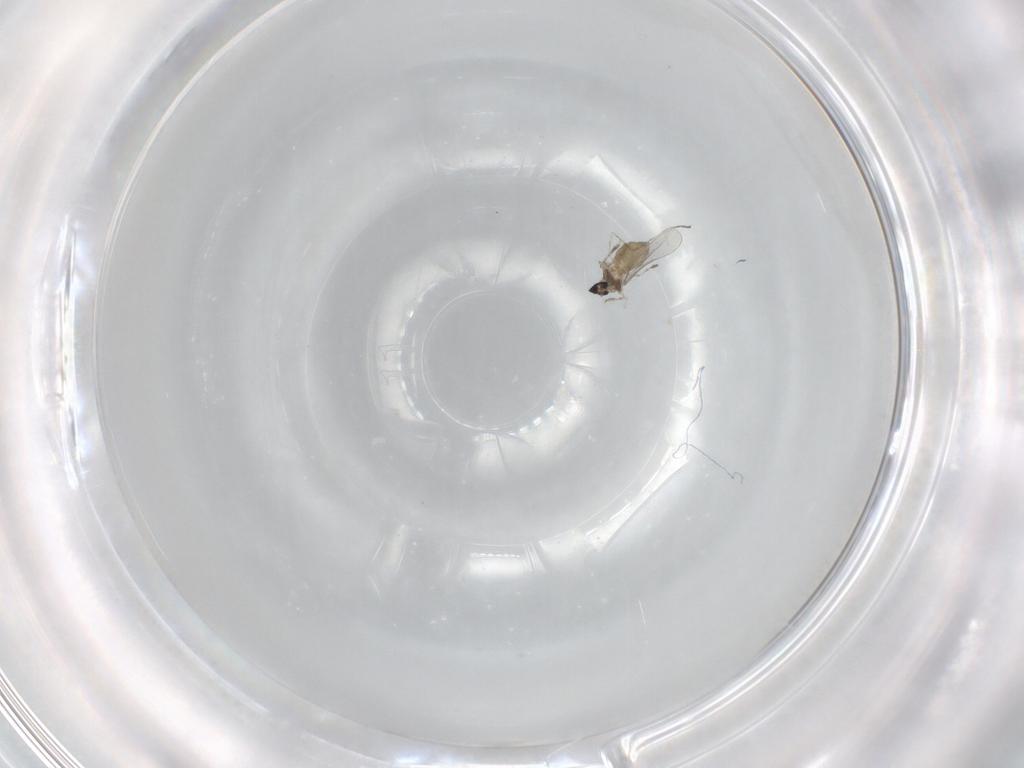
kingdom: Animalia
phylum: Arthropoda
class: Insecta
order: Diptera
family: Cecidomyiidae
